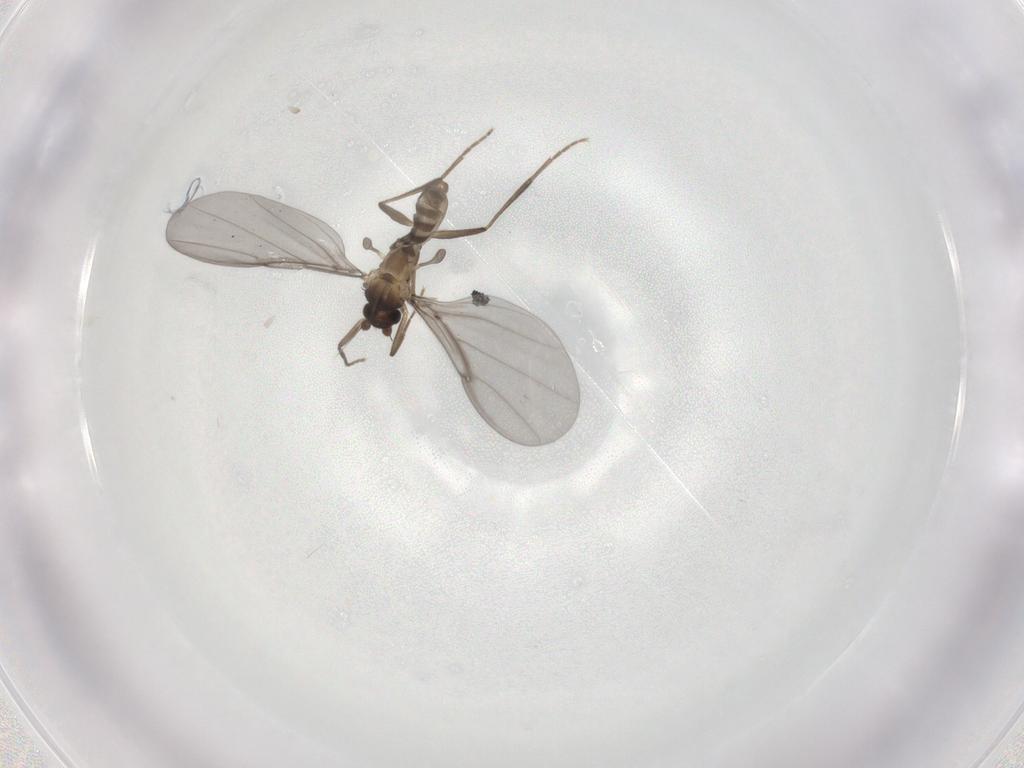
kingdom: Animalia
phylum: Arthropoda
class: Insecta
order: Diptera
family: Phoridae
